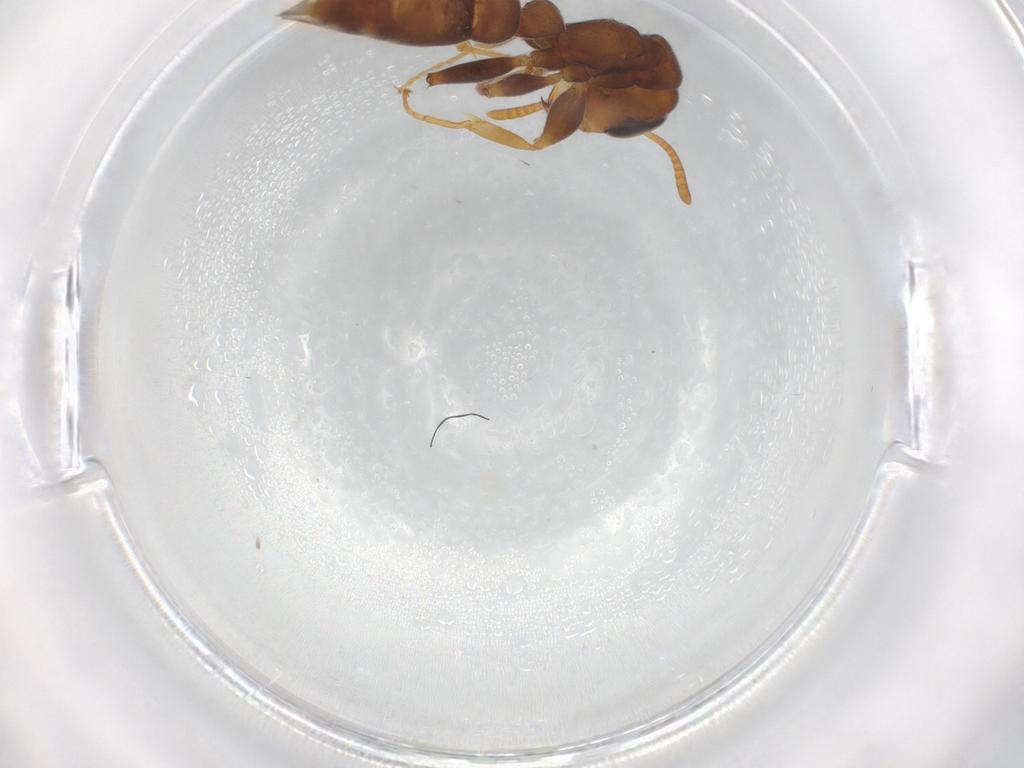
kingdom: Animalia
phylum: Arthropoda
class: Insecta
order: Hymenoptera
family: Formicidae
